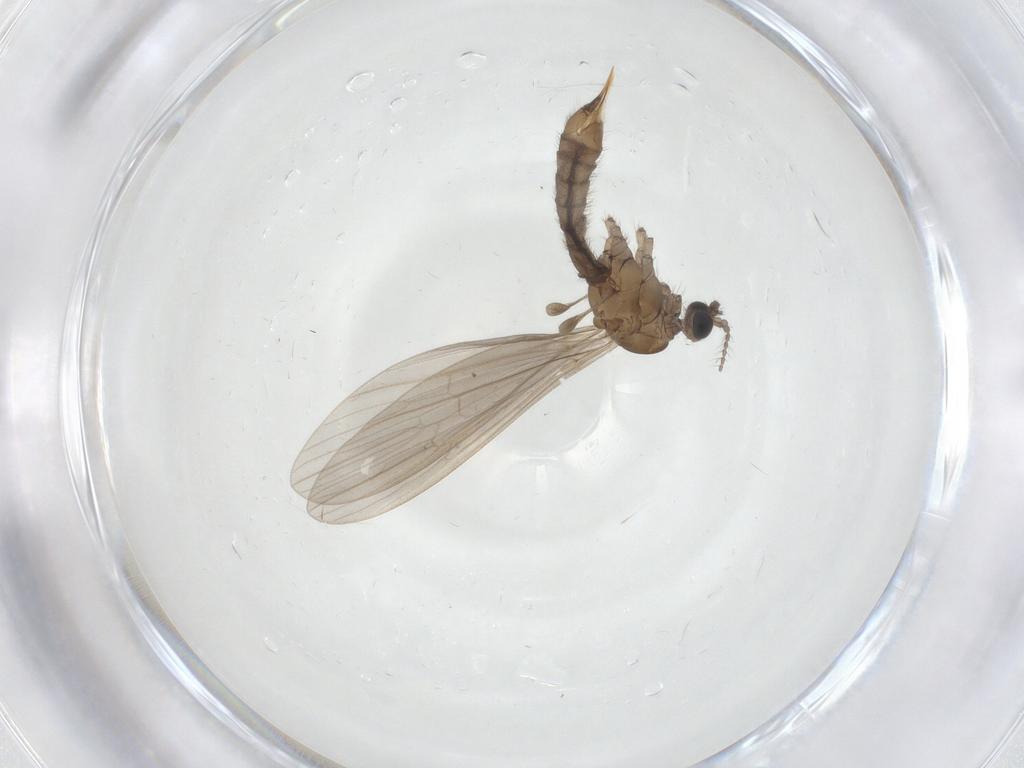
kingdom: Animalia
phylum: Arthropoda
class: Insecta
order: Diptera
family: Limoniidae
